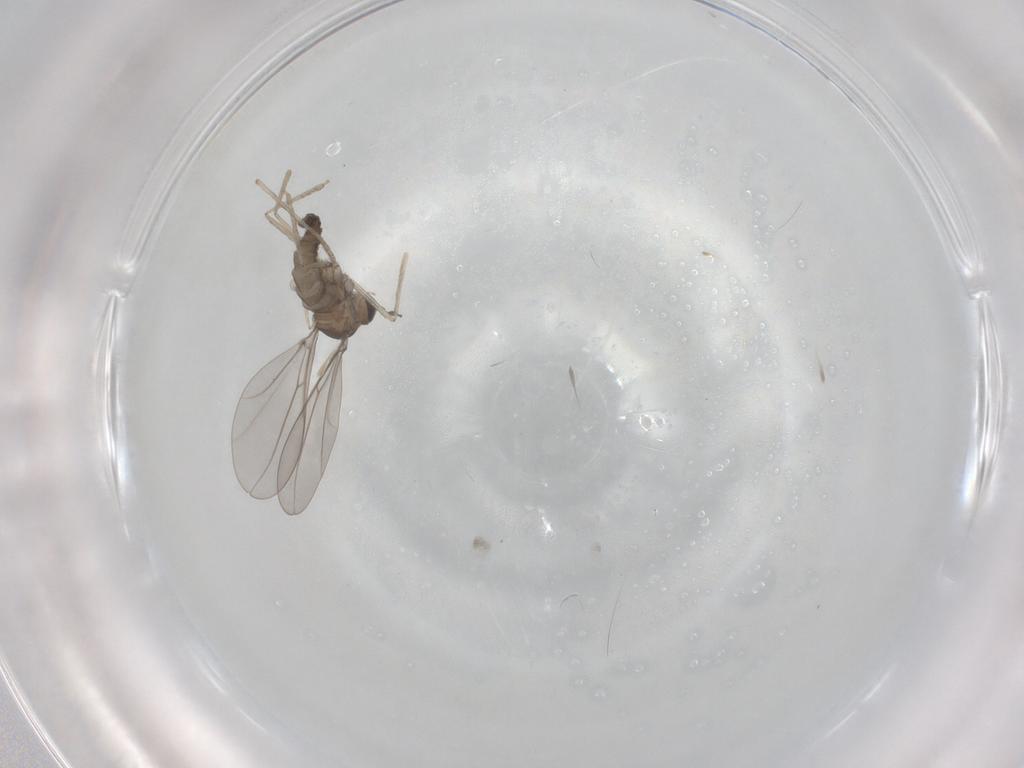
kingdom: Animalia
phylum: Arthropoda
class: Insecta
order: Diptera
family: Cecidomyiidae
